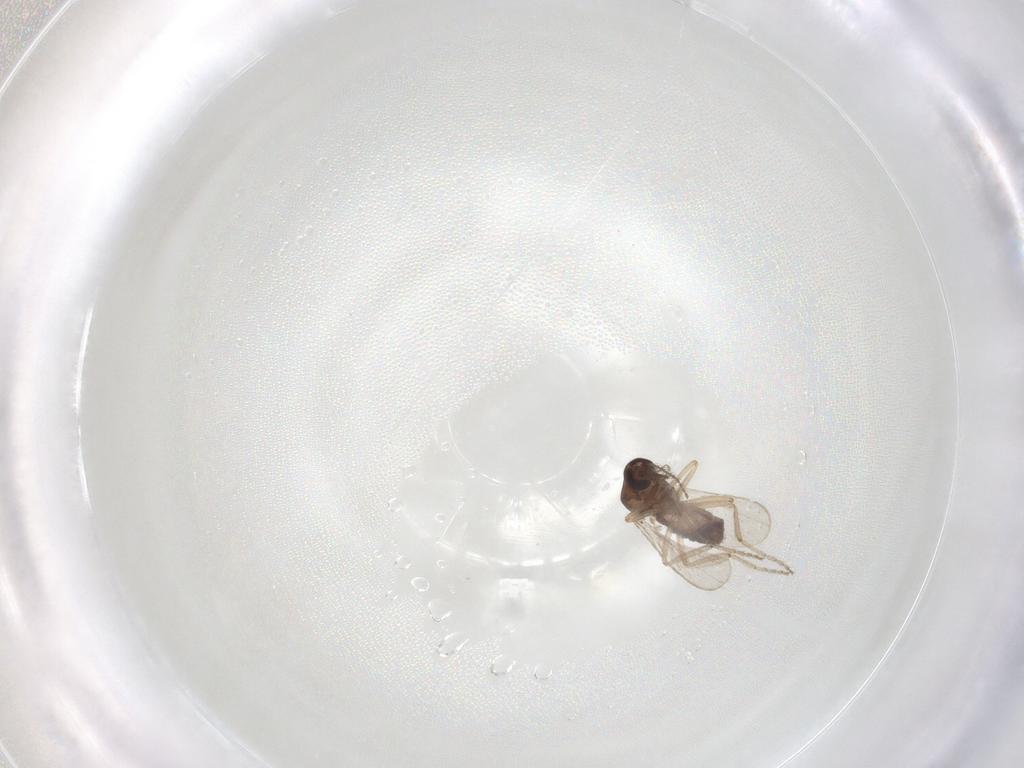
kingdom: Animalia
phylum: Arthropoda
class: Insecta
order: Diptera
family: Ceratopogonidae
